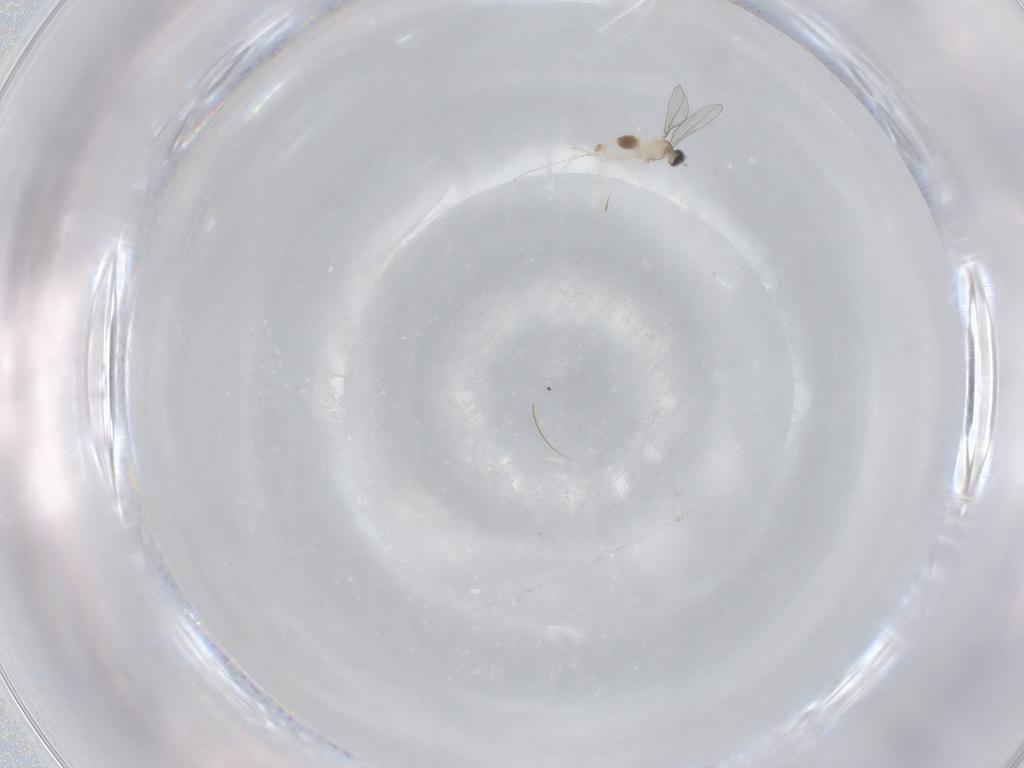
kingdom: Animalia
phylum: Arthropoda
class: Insecta
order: Diptera
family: Cecidomyiidae
